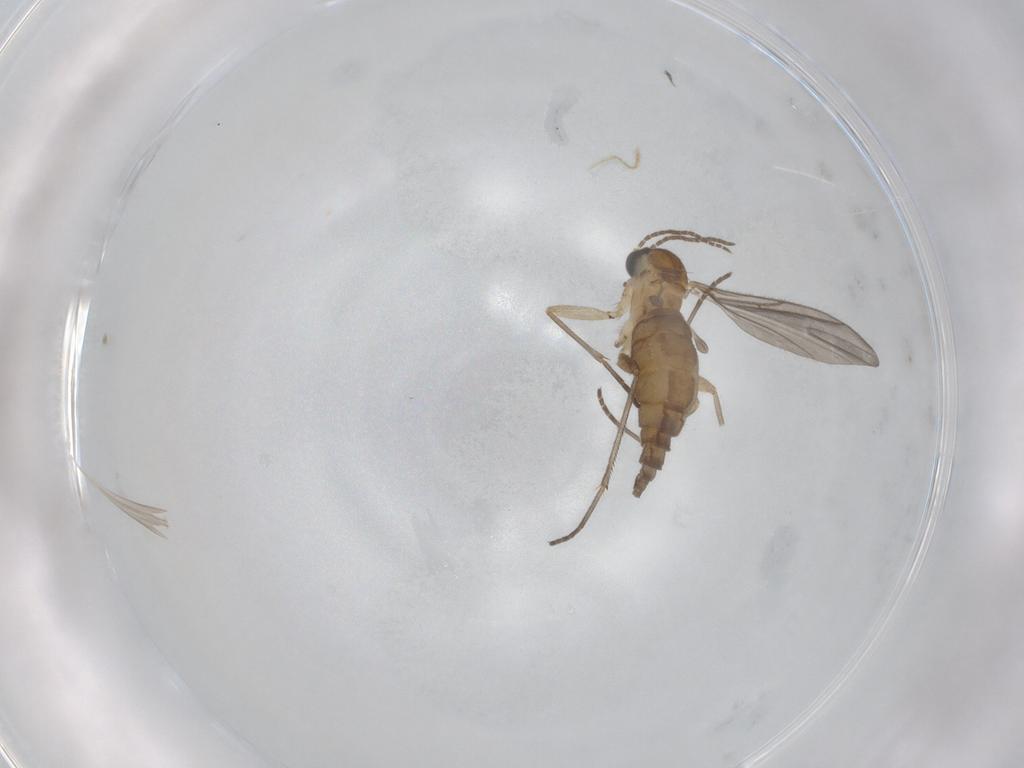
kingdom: Animalia
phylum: Arthropoda
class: Insecta
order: Diptera
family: Sciaridae
